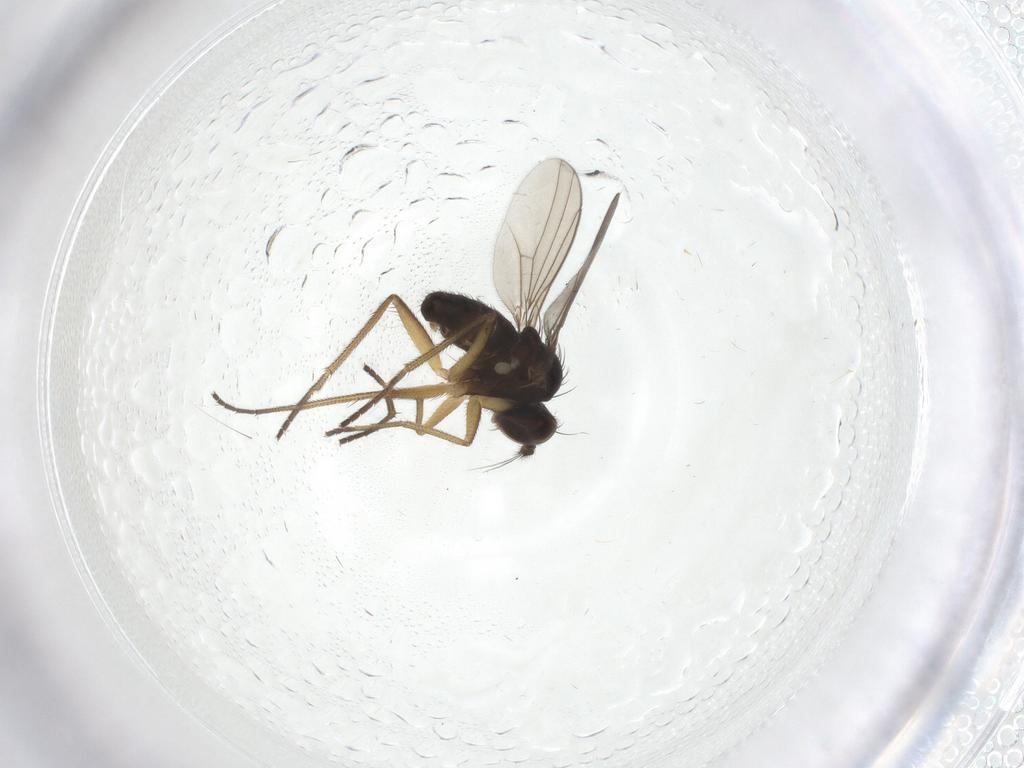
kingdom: Animalia
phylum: Arthropoda
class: Insecta
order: Diptera
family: Dolichopodidae
